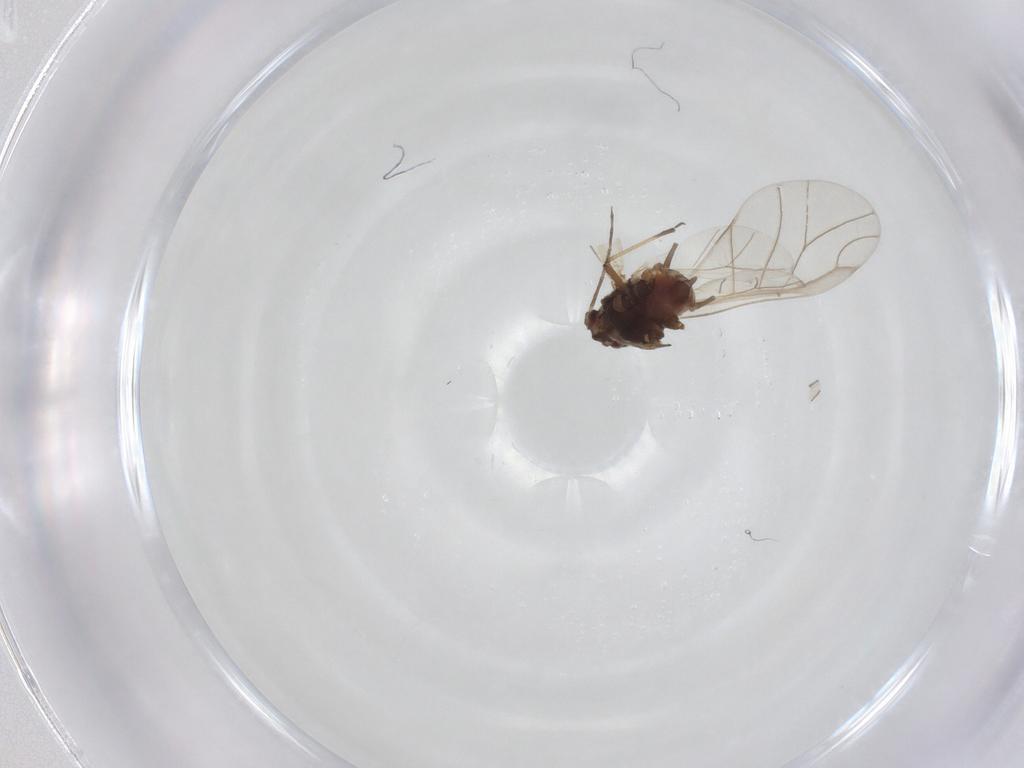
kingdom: Animalia
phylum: Arthropoda
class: Insecta
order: Hemiptera
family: Aphididae
